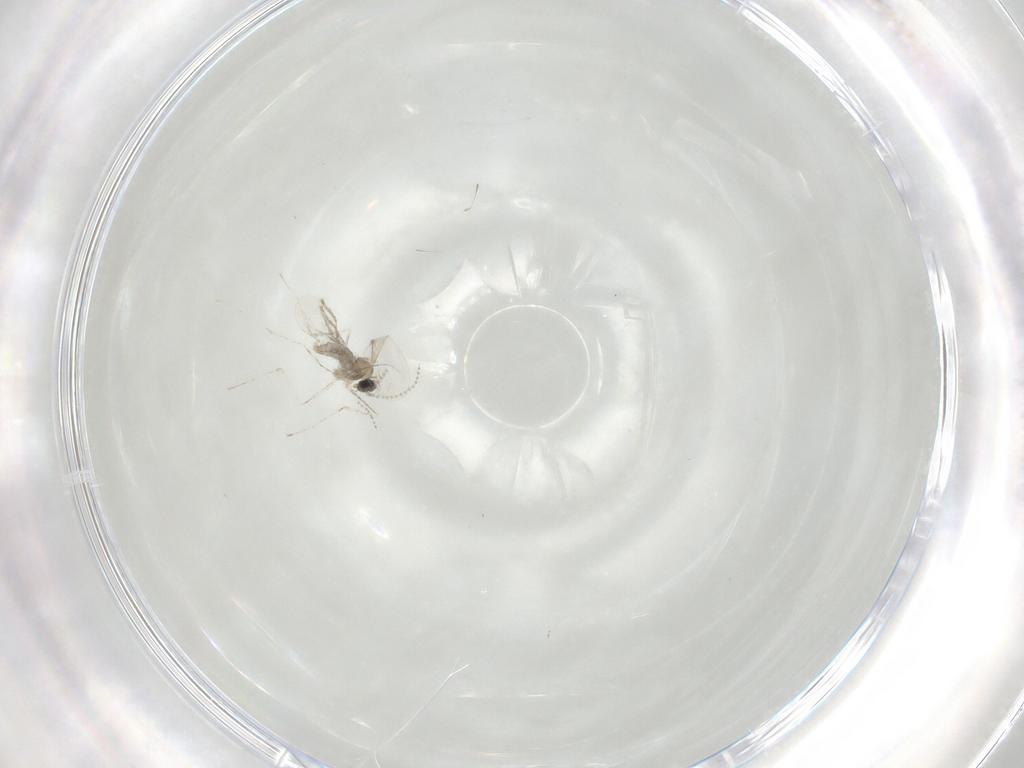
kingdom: Animalia
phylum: Arthropoda
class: Insecta
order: Diptera
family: Cecidomyiidae
